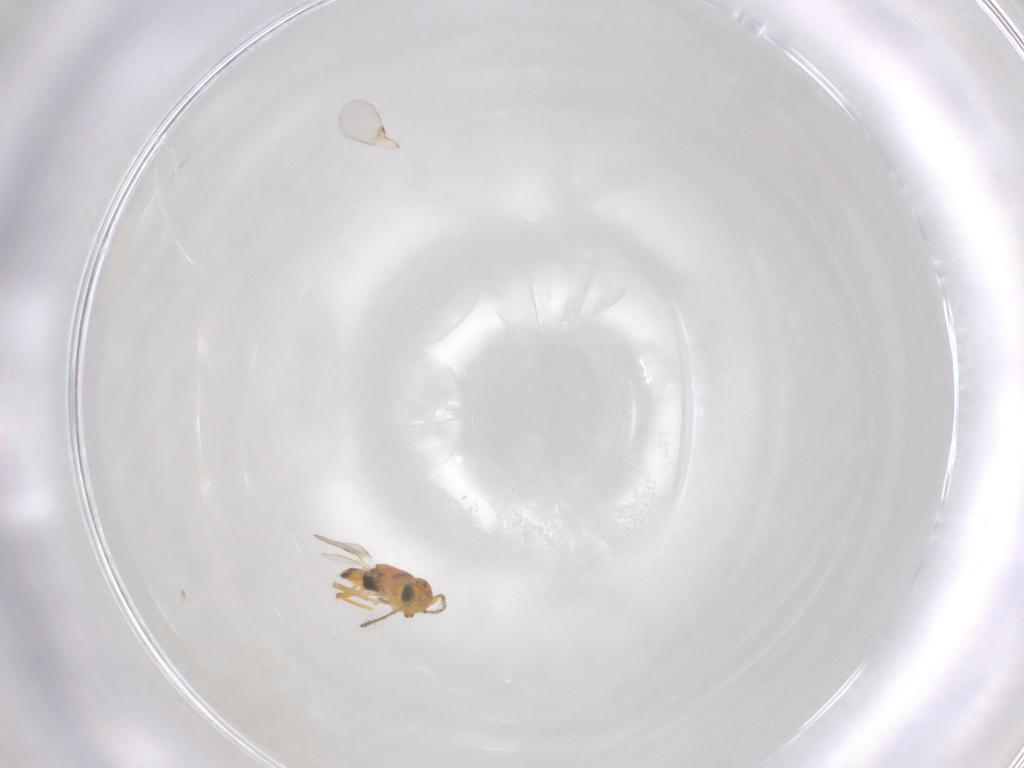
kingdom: Animalia
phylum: Arthropoda
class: Insecta
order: Hymenoptera
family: Encyrtidae
